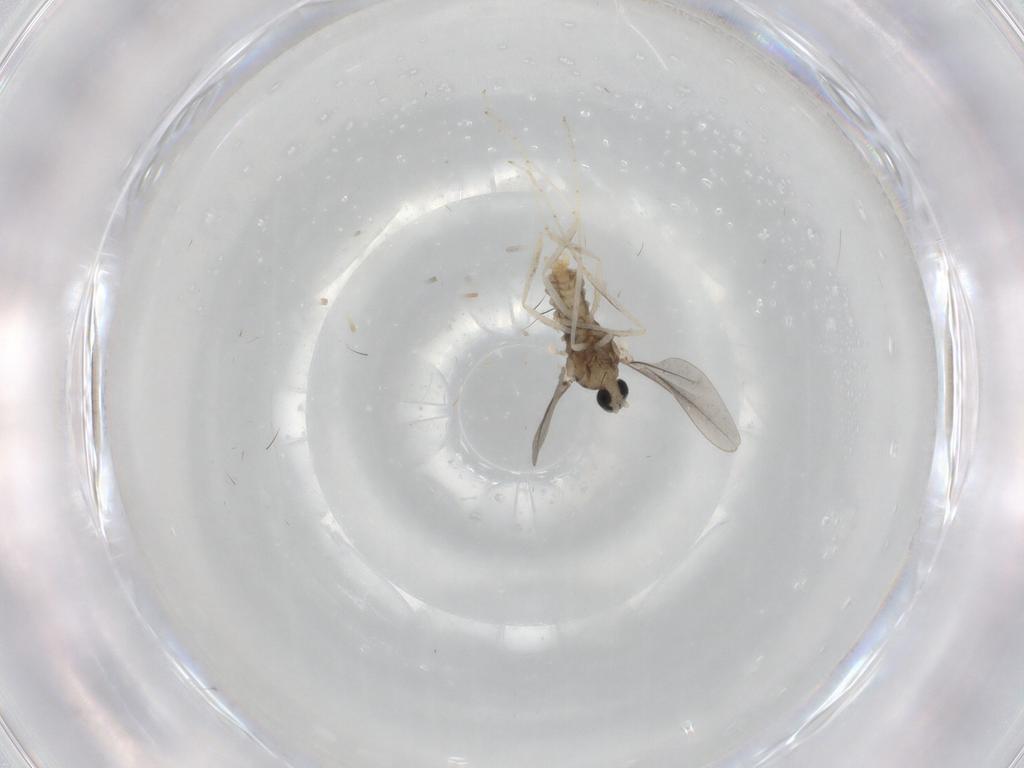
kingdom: Animalia
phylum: Arthropoda
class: Insecta
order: Diptera
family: Cecidomyiidae
